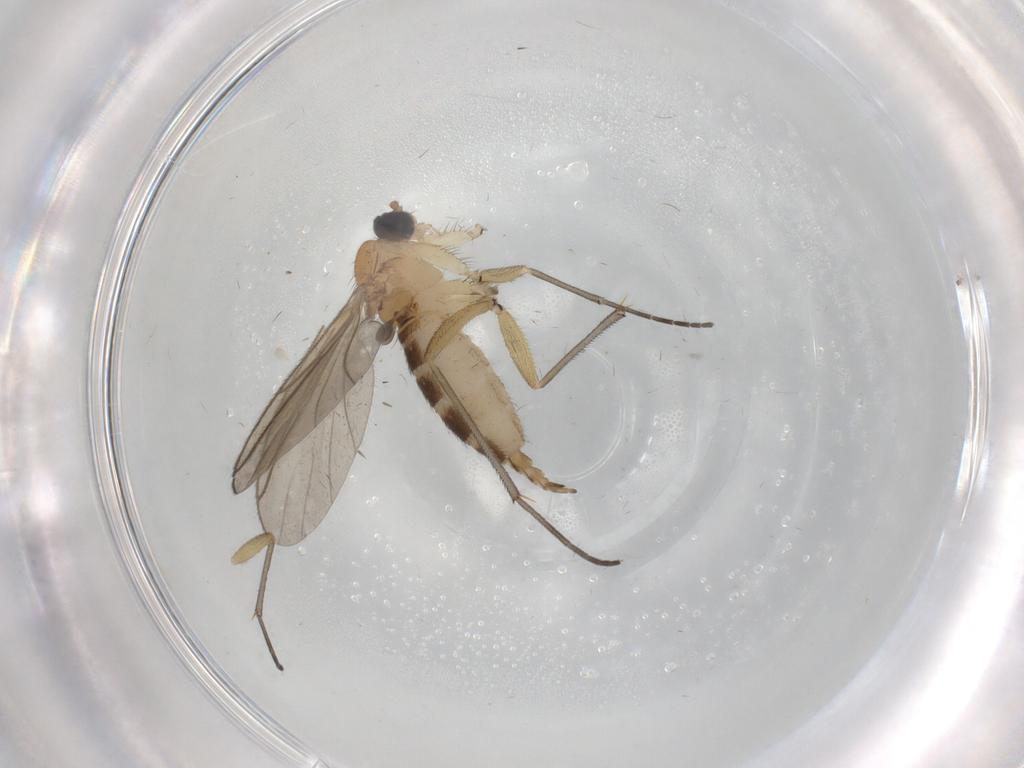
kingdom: Animalia
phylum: Arthropoda
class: Insecta
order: Diptera
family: Sciaridae
